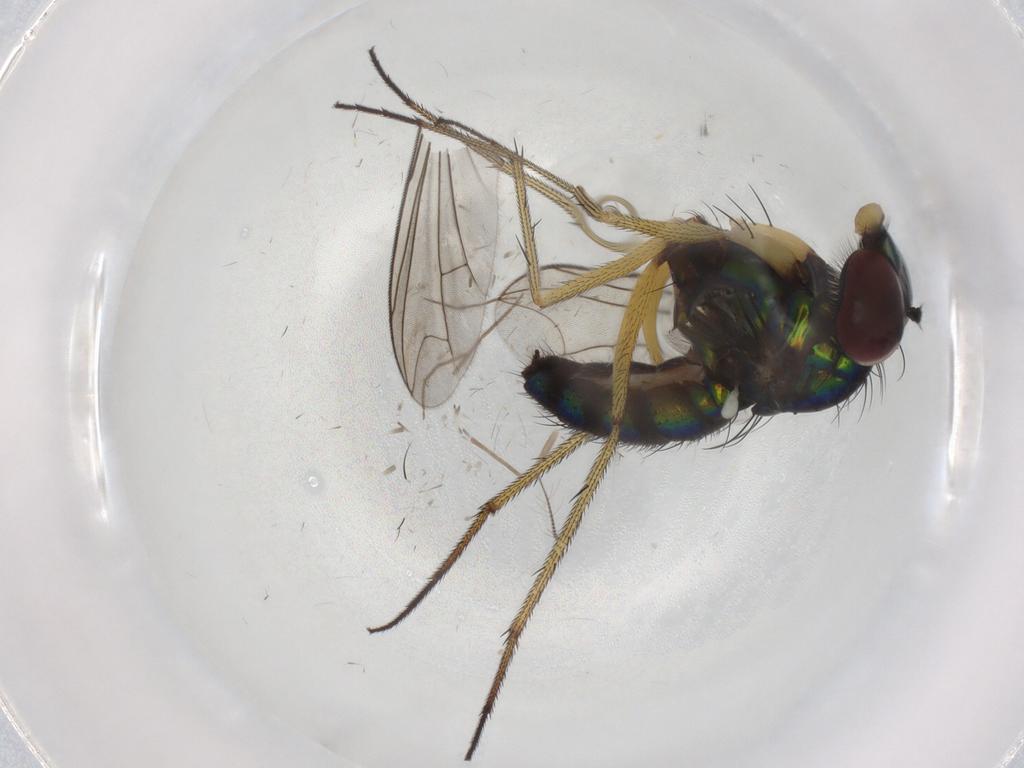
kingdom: Animalia
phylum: Arthropoda
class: Insecta
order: Diptera
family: Dolichopodidae
